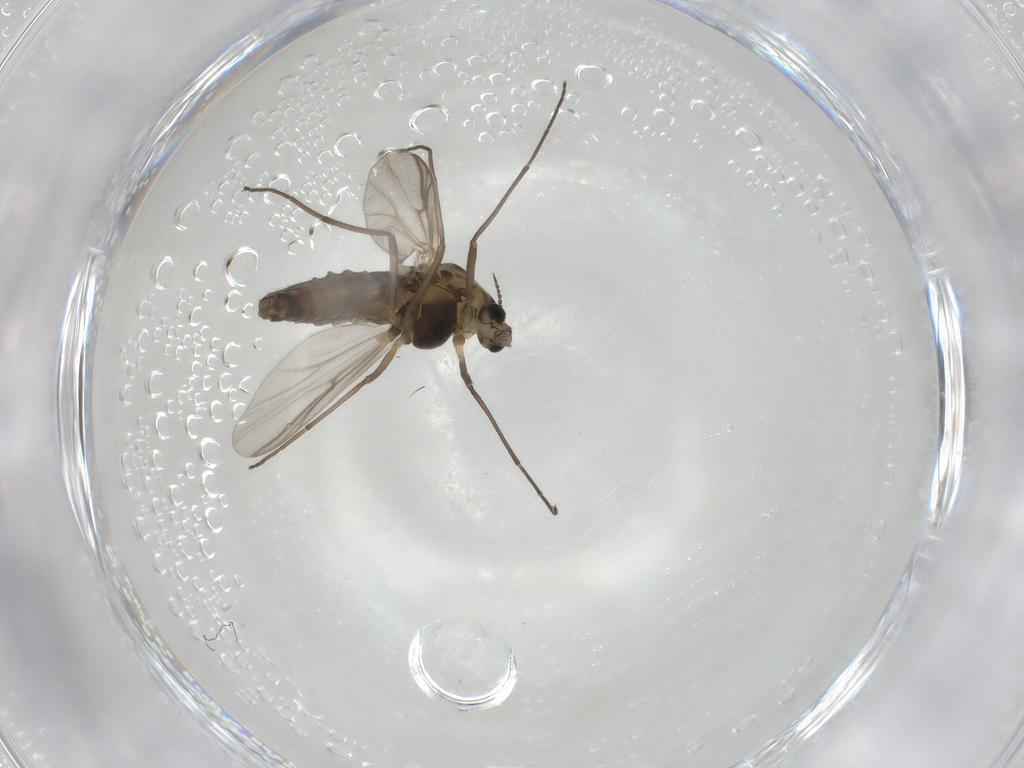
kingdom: Animalia
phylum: Arthropoda
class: Insecta
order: Diptera
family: Chironomidae
